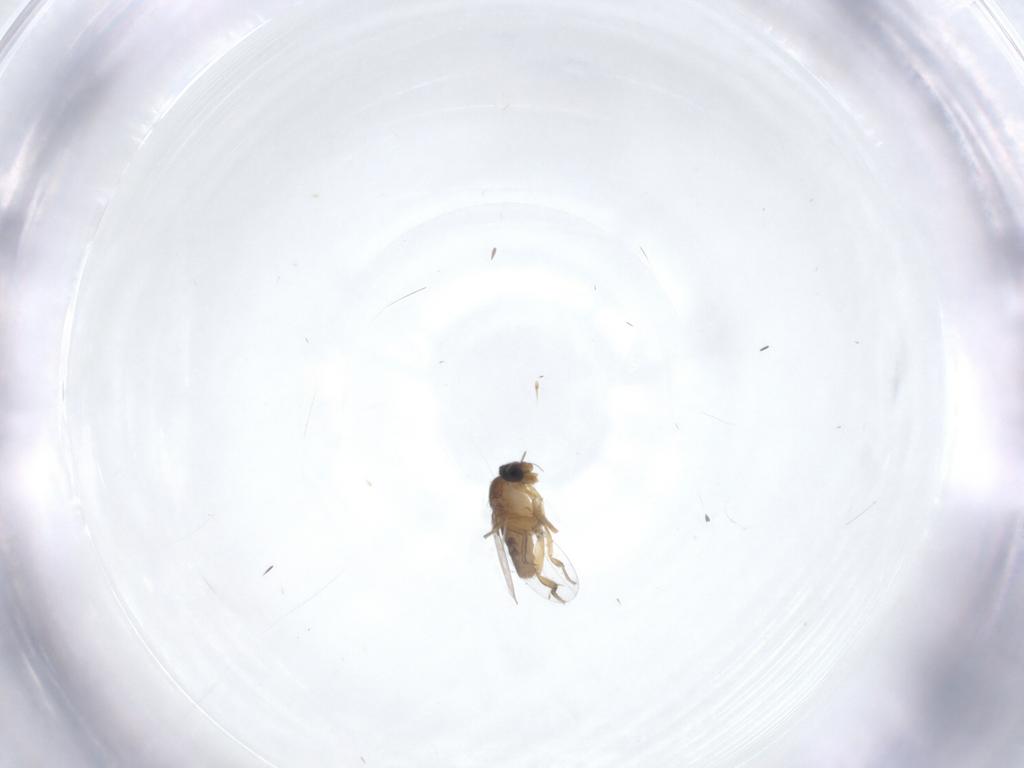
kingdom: Animalia
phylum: Arthropoda
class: Insecta
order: Diptera
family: Cecidomyiidae
